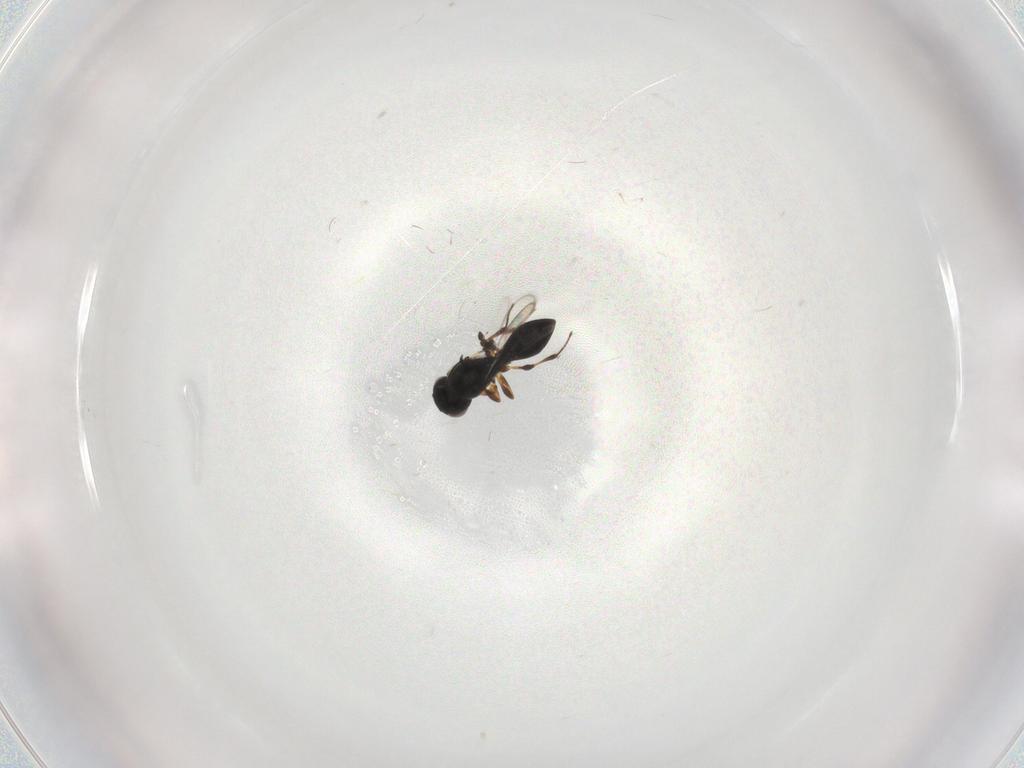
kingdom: Animalia
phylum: Arthropoda
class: Insecta
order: Hymenoptera
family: Platygastridae
